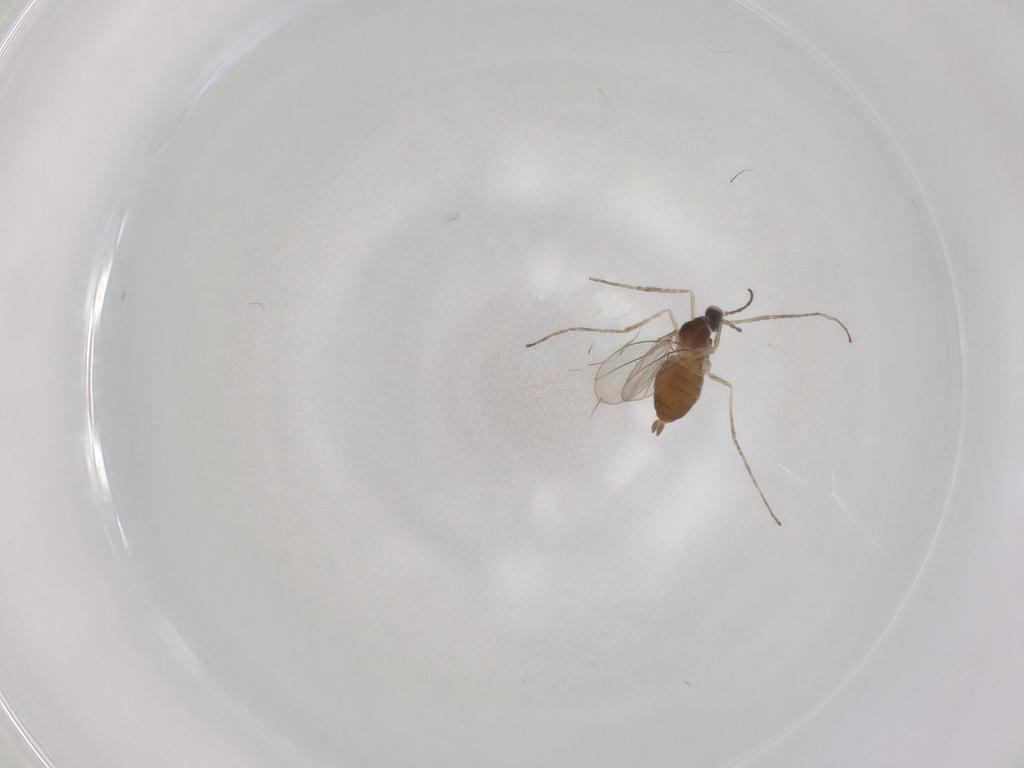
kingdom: Animalia
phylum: Arthropoda
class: Insecta
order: Diptera
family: Cecidomyiidae
